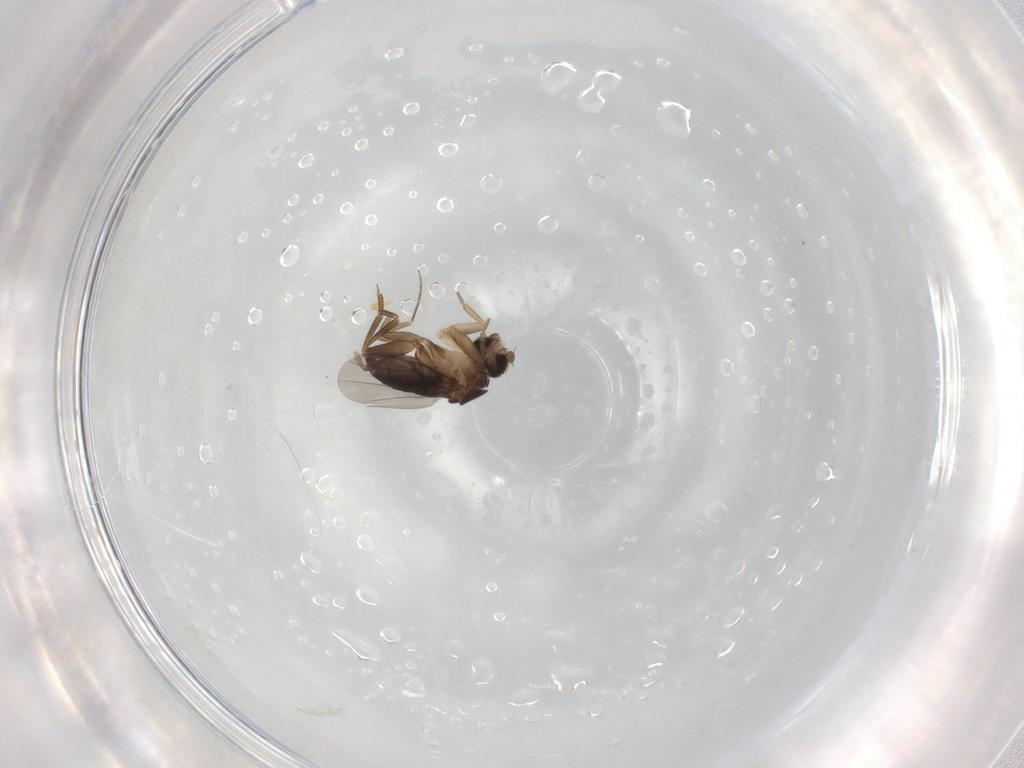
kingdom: Animalia
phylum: Arthropoda
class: Insecta
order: Diptera
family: Phoridae
